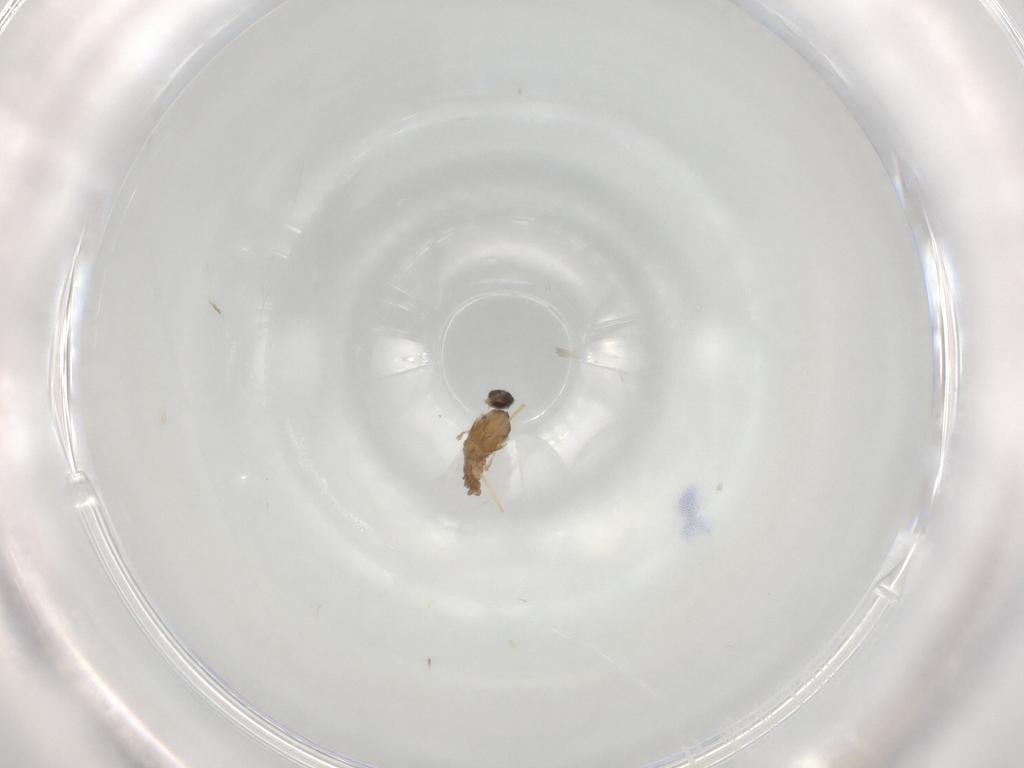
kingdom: Animalia
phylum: Arthropoda
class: Insecta
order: Diptera
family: Cecidomyiidae
